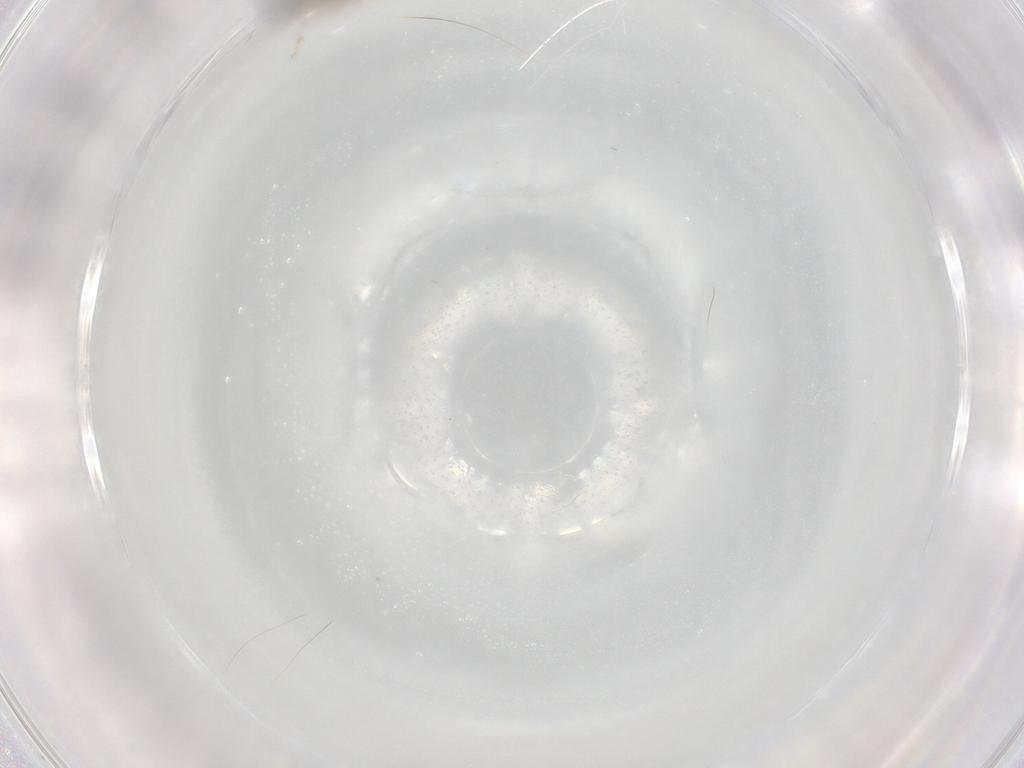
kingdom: Animalia
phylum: Arthropoda
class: Insecta
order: Diptera
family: Cecidomyiidae
